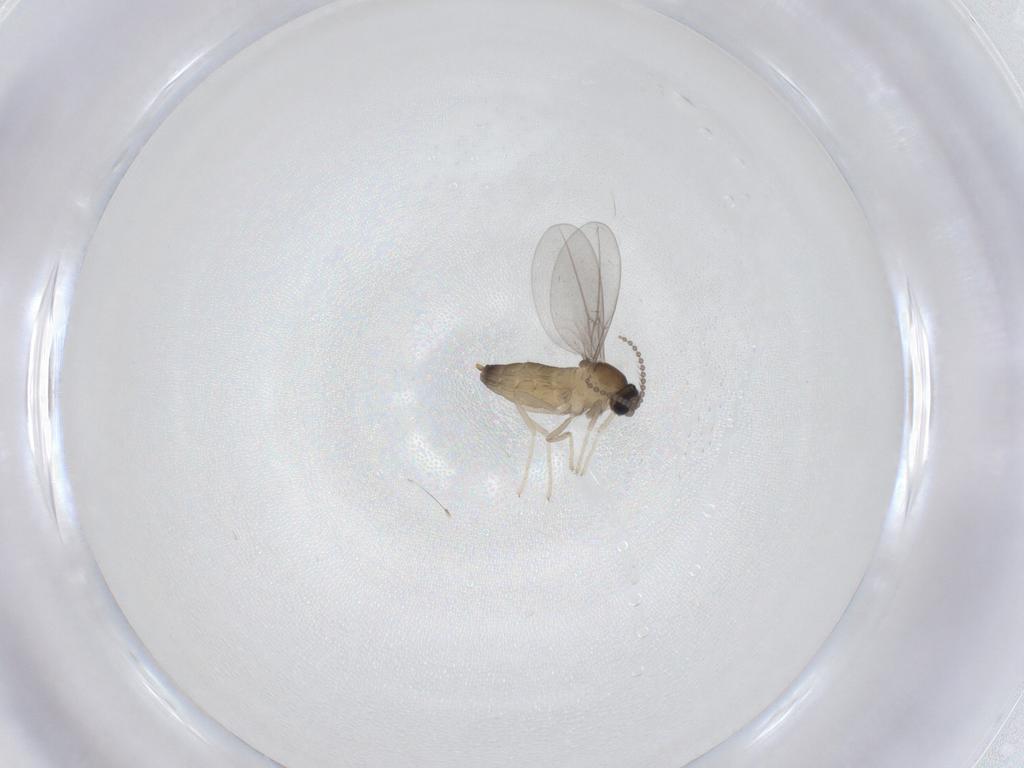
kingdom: Animalia
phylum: Arthropoda
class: Insecta
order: Diptera
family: Cecidomyiidae
